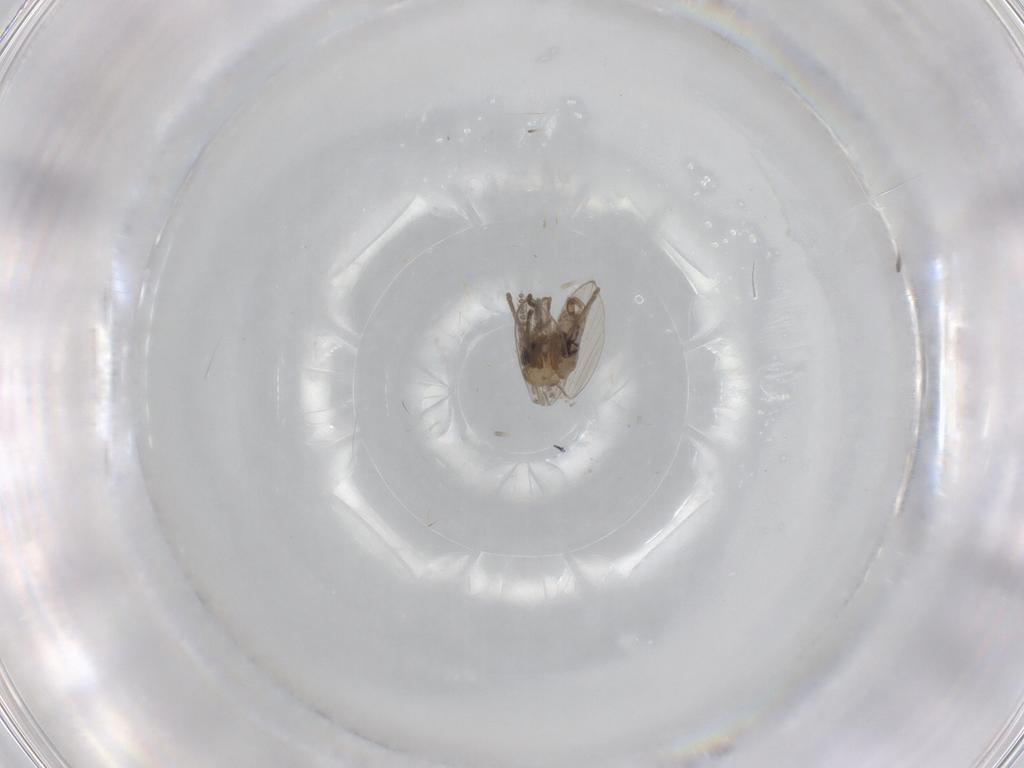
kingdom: Animalia
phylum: Arthropoda
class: Insecta
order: Diptera
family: Psychodidae
